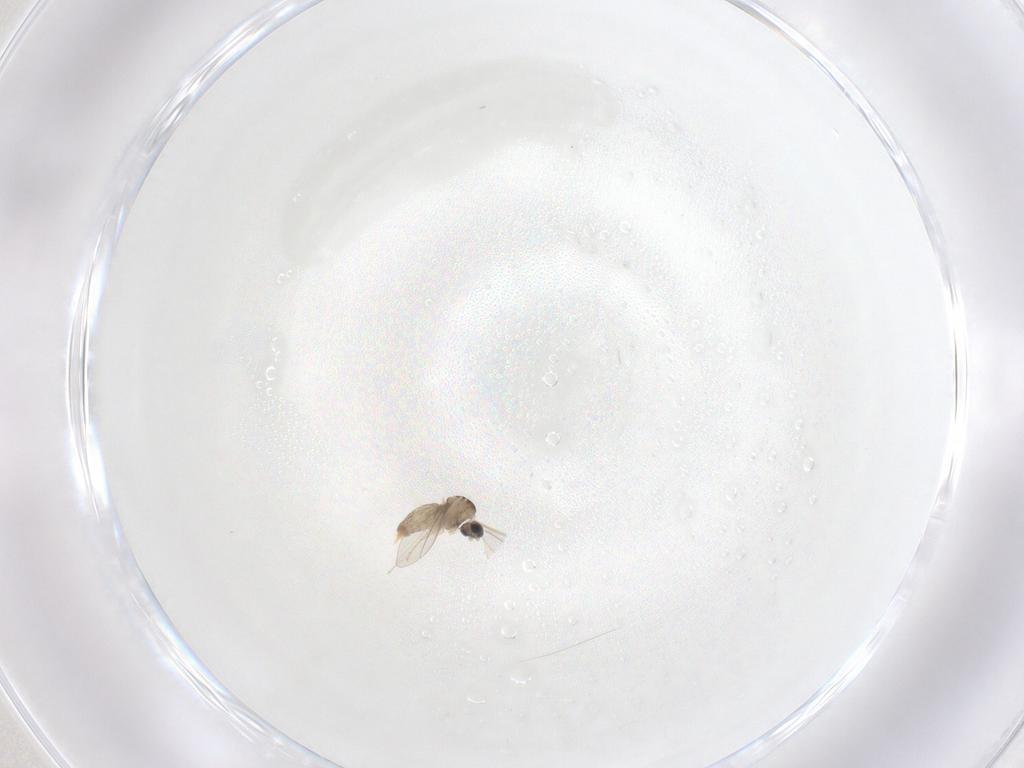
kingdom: Animalia
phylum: Arthropoda
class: Insecta
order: Diptera
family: Cecidomyiidae
